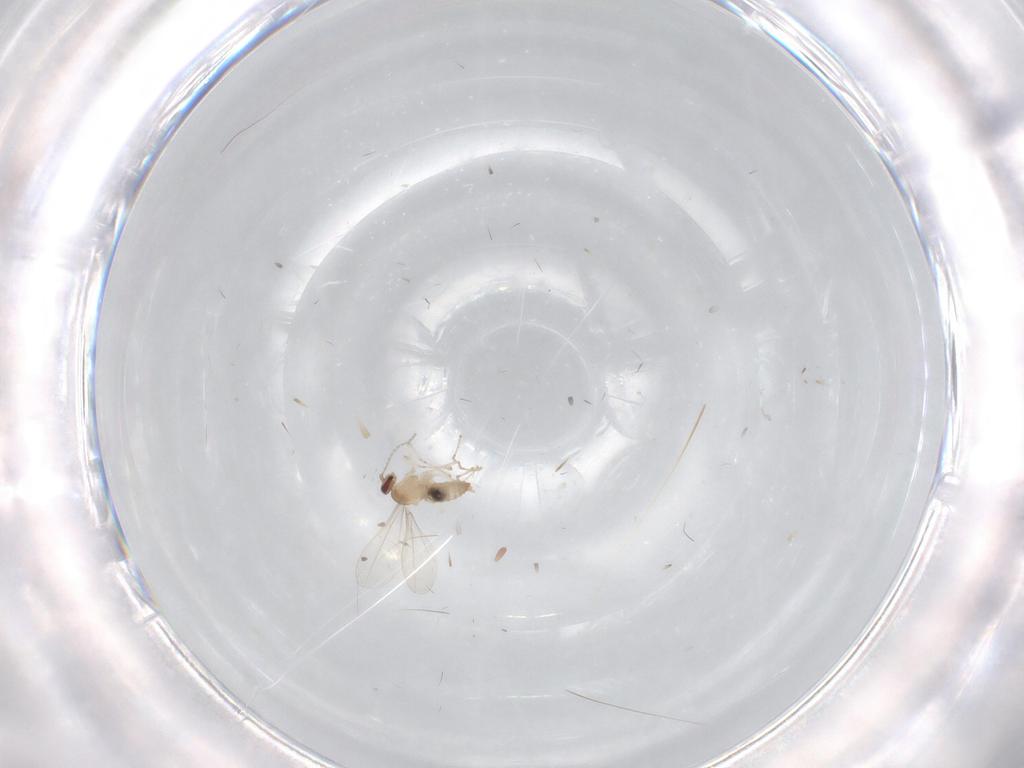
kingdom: Animalia
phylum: Arthropoda
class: Insecta
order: Diptera
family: Cecidomyiidae
